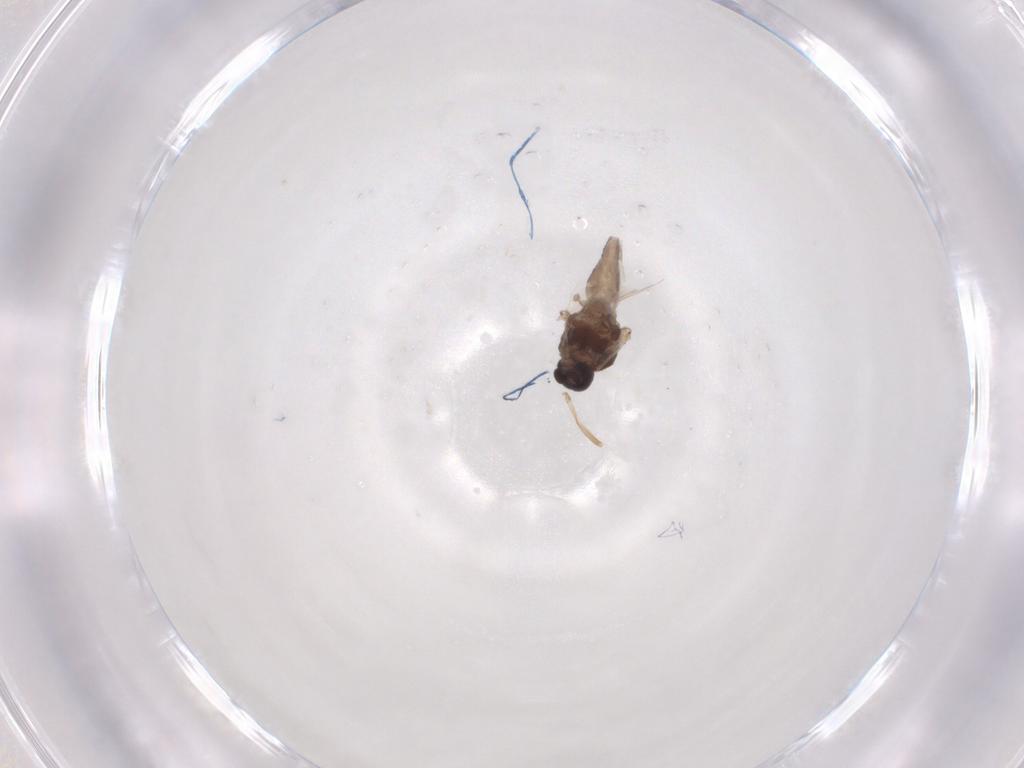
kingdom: Animalia
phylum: Arthropoda
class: Insecta
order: Diptera
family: Ceratopogonidae
